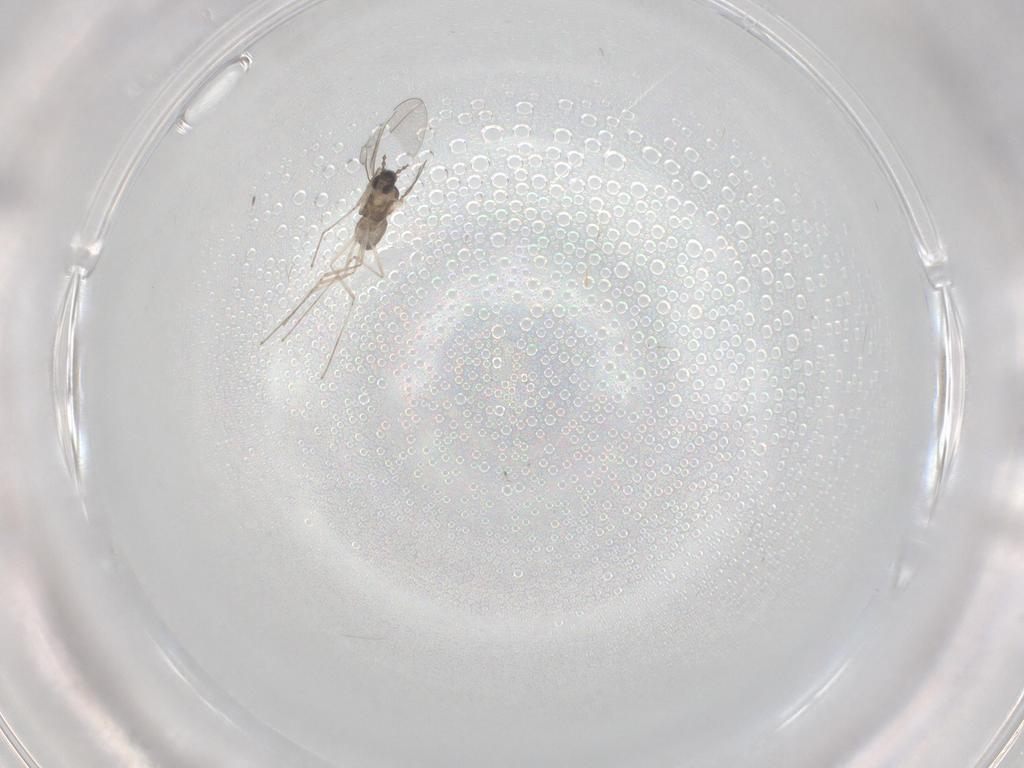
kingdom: Animalia
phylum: Arthropoda
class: Insecta
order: Diptera
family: Cecidomyiidae
